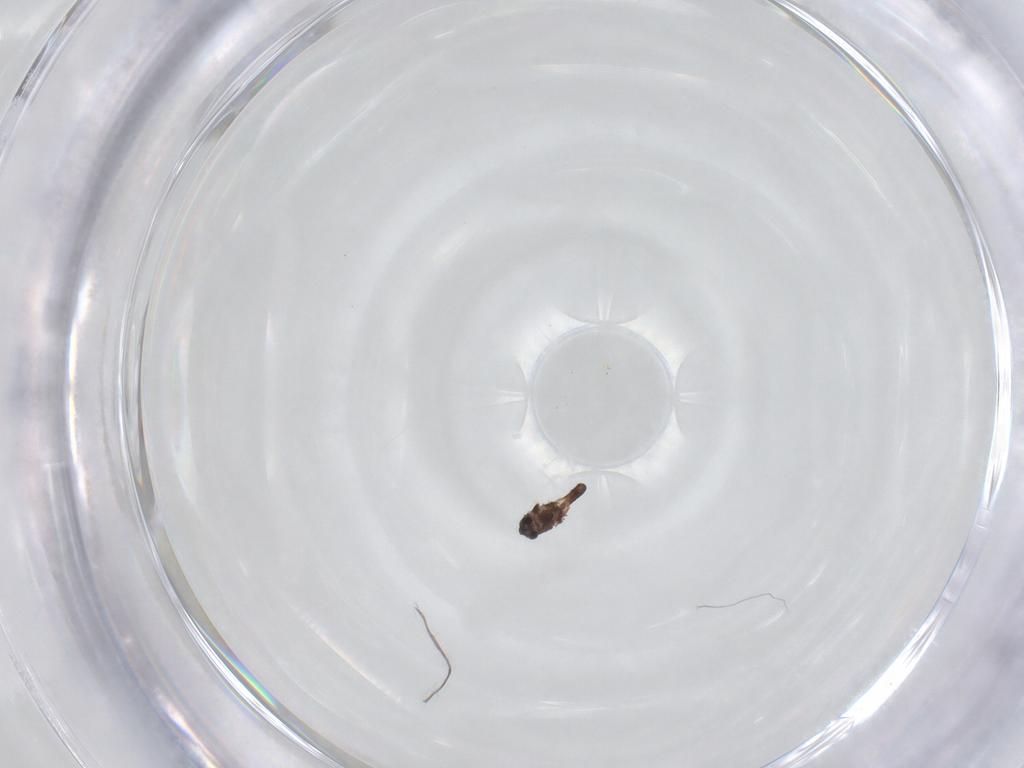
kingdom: Animalia
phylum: Arthropoda
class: Insecta
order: Diptera
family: Chironomidae
